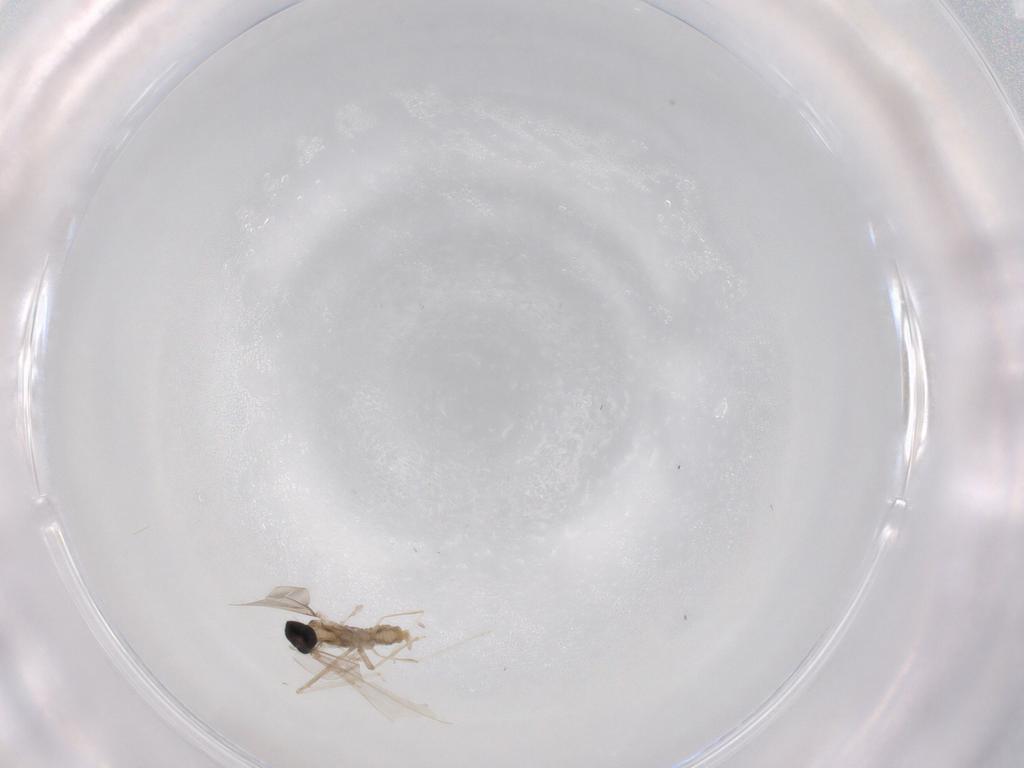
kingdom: Animalia
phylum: Arthropoda
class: Insecta
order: Diptera
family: Cecidomyiidae
